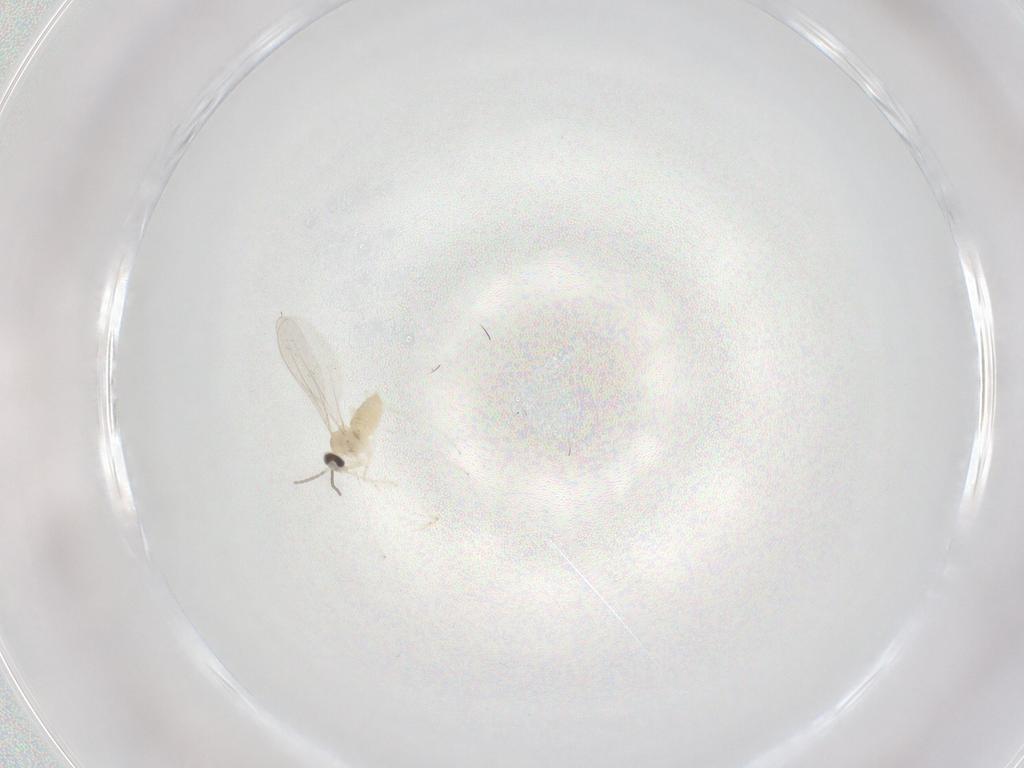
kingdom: Animalia
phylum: Arthropoda
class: Insecta
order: Diptera
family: Cecidomyiidae
